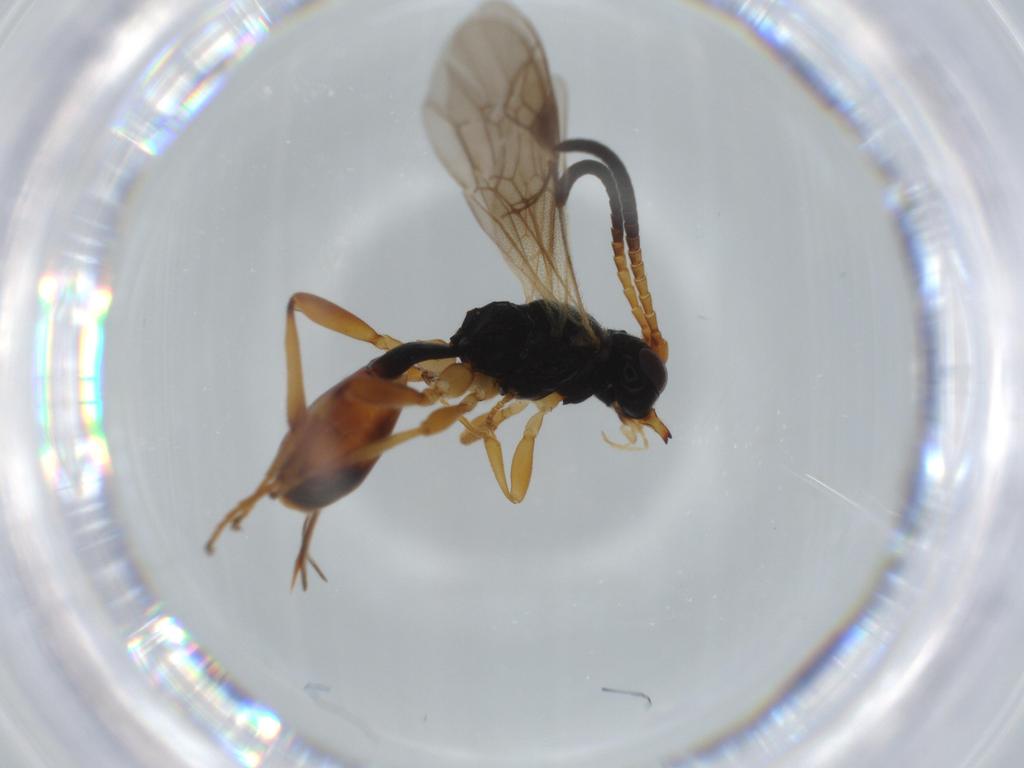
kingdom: Animalia
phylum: Arthropoda
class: Insecta
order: Hymenoptera
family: Ichneumonidae
